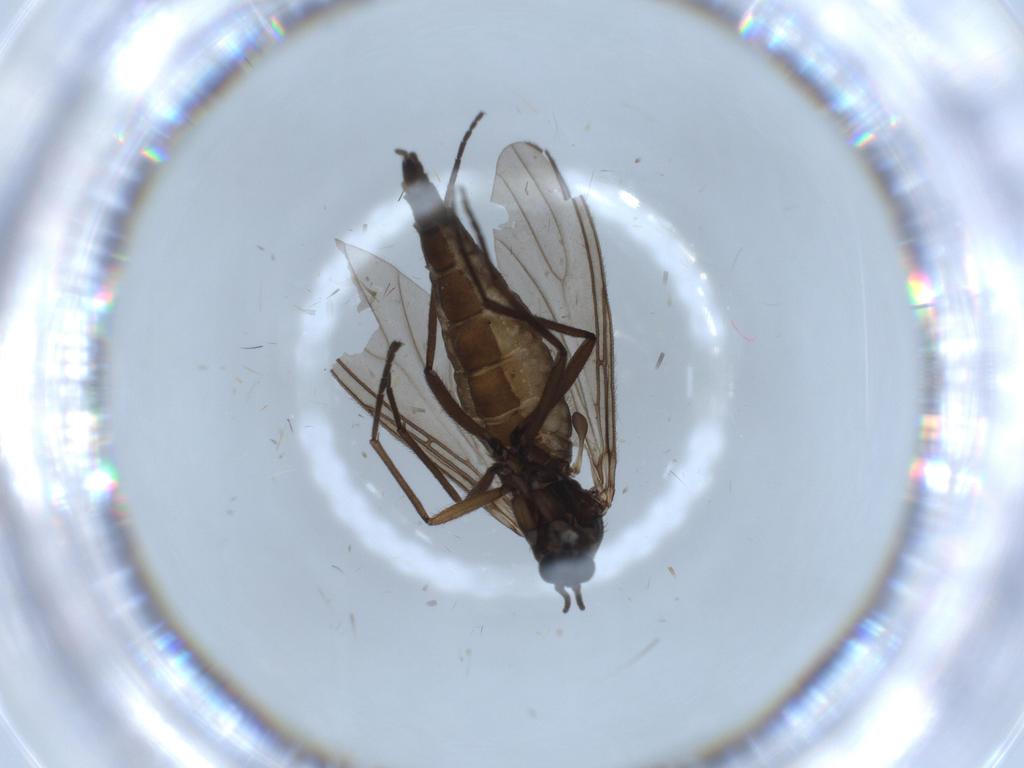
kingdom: Animalia
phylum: Arthropoda
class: Insecta
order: Diptera
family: Sciaridae
